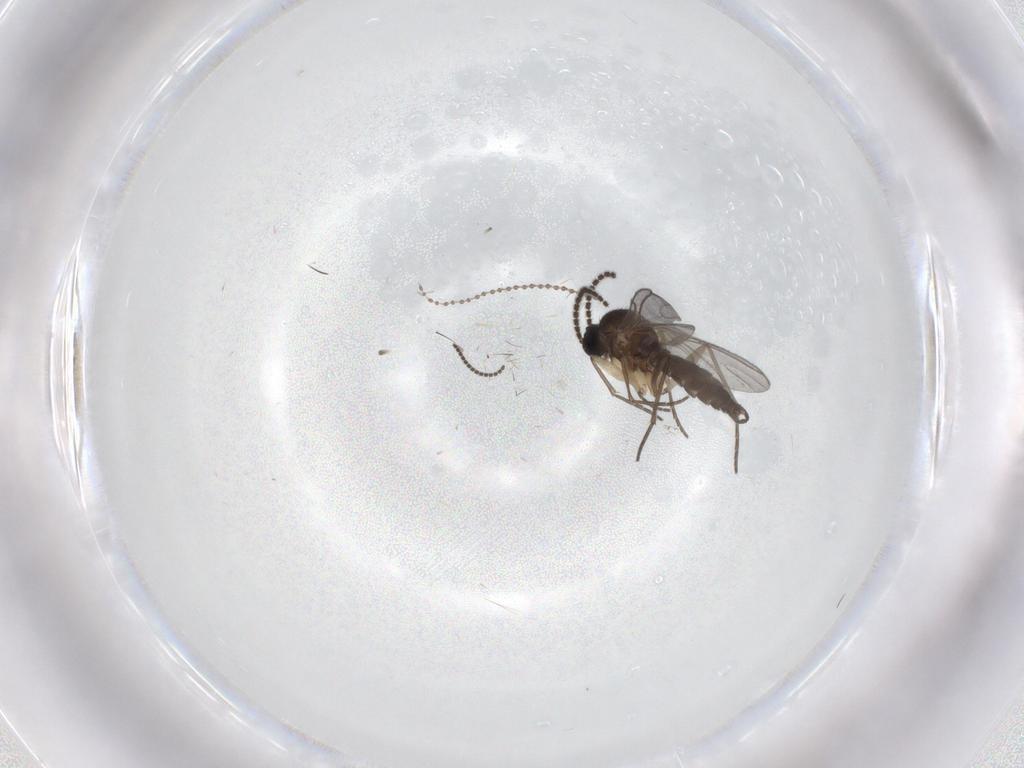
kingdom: Animalia
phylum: Arthropoda
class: Insecta
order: Diptera
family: Sciaridae
